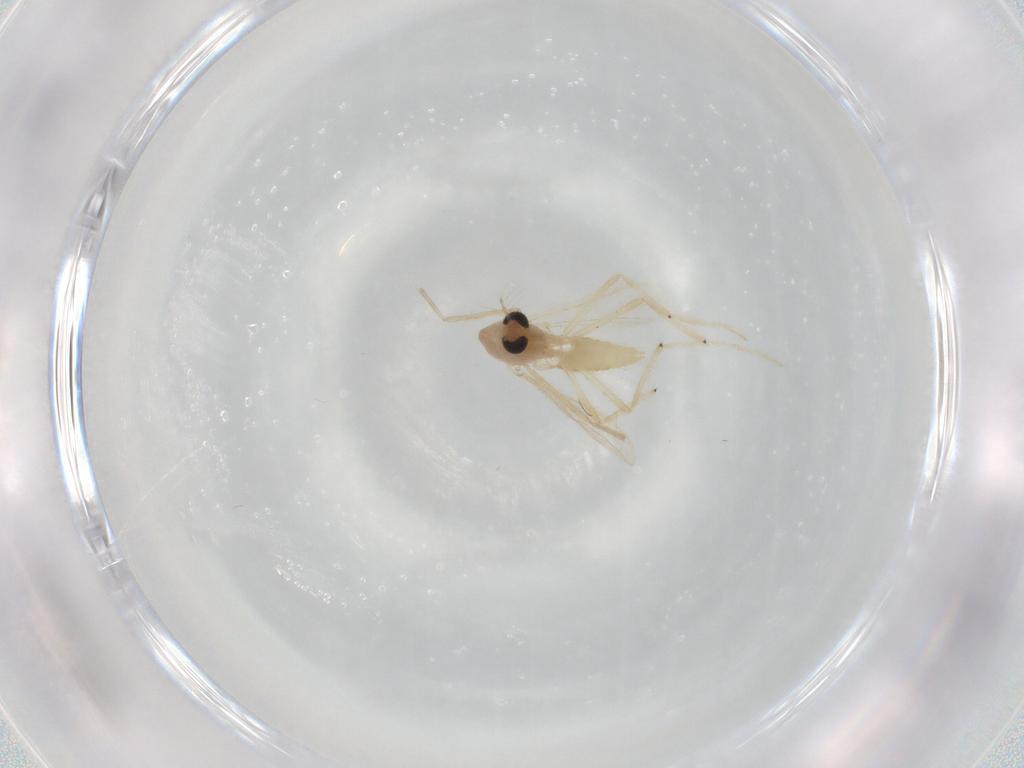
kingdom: Animalia
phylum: Arthropoda
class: Insecta
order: Diptera
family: Chironomidae
